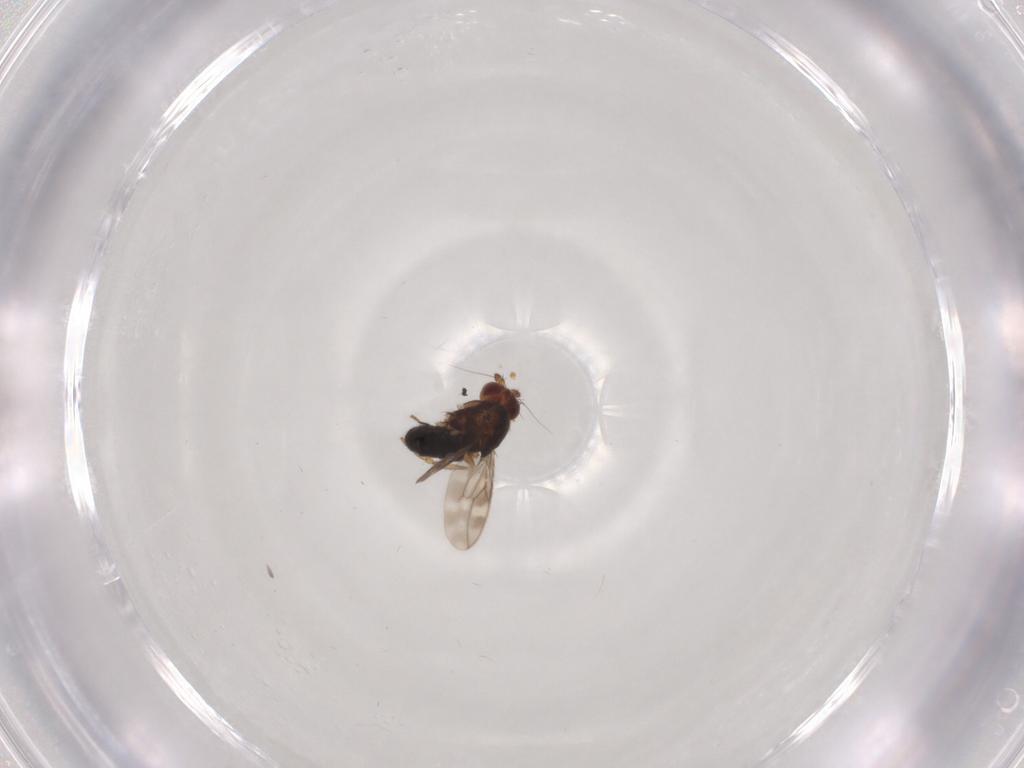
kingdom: Animalia
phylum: Arthropoda
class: Insecta
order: Diptera
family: Sphaeroceridae
